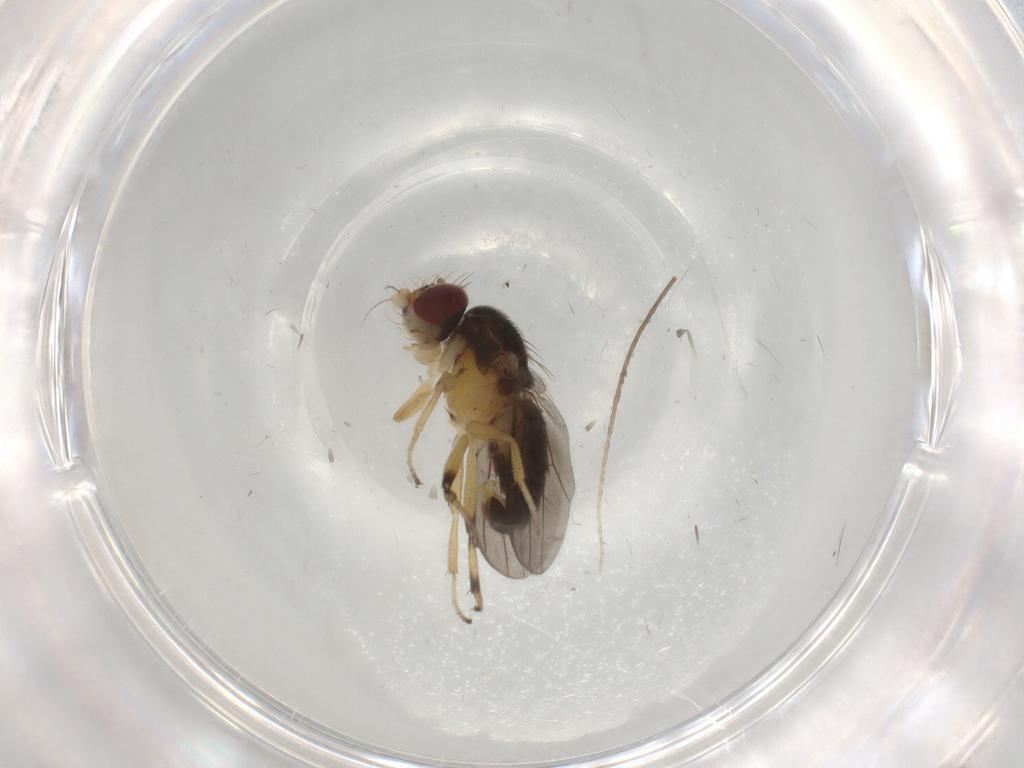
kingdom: Animalia
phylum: Arthropoda
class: Insecta
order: Diptera
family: Clusiidae
